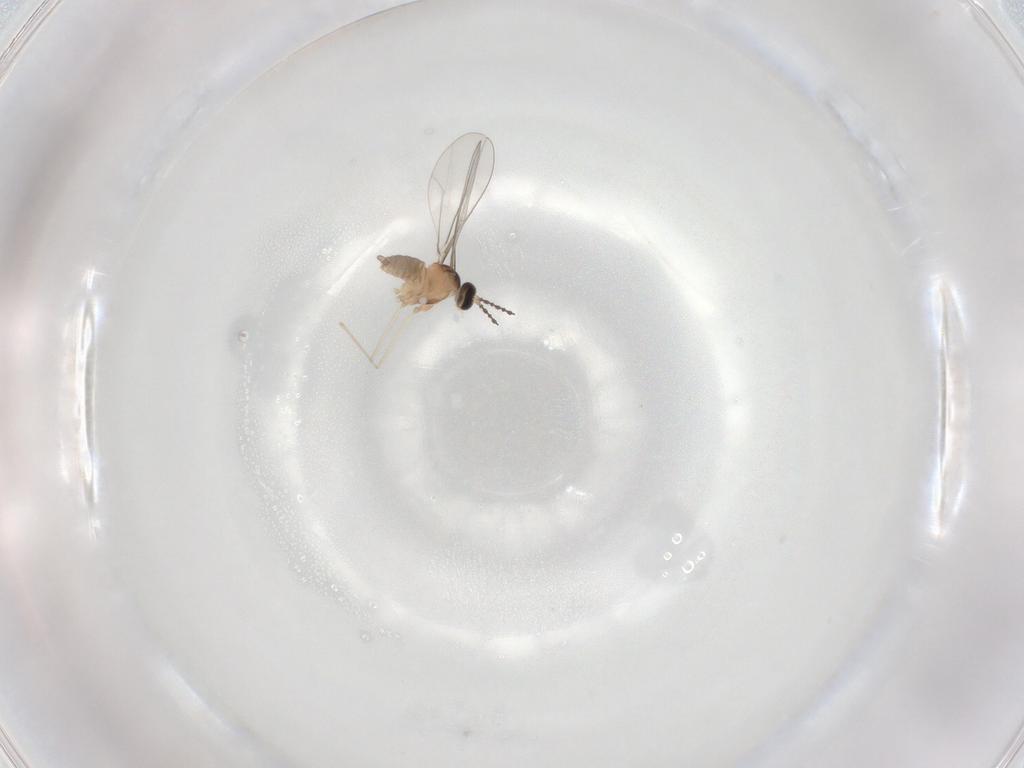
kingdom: Animalia
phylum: Arthropoda
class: Insecta
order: Diptera
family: Cecidomyiidae
